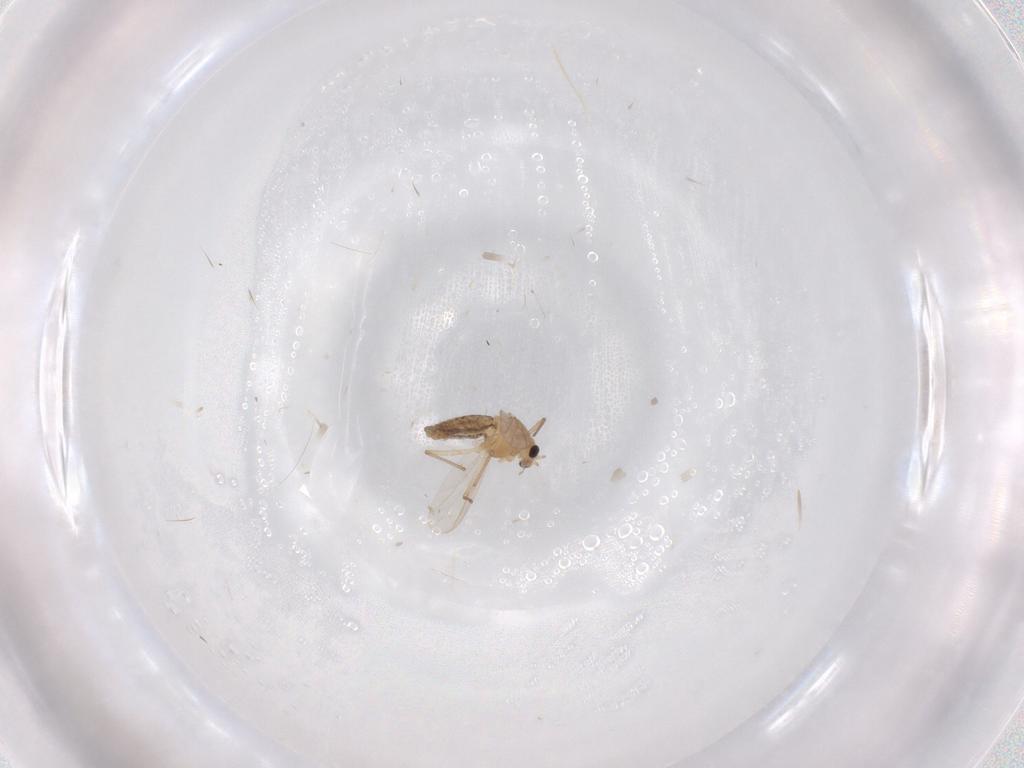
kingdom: Animalia
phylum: Arthropoda
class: Insecta
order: Diptera
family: Chironomidae
